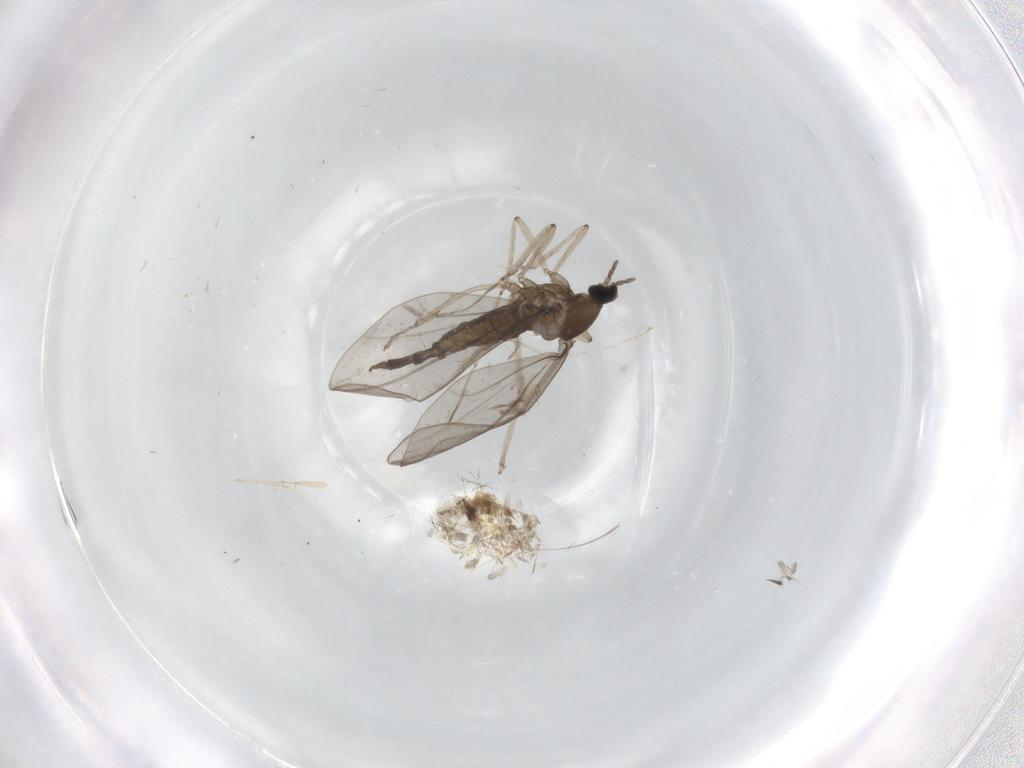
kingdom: Animalia
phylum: Arthropoda
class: Insecta
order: Diptera
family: Cecidomyiidae
